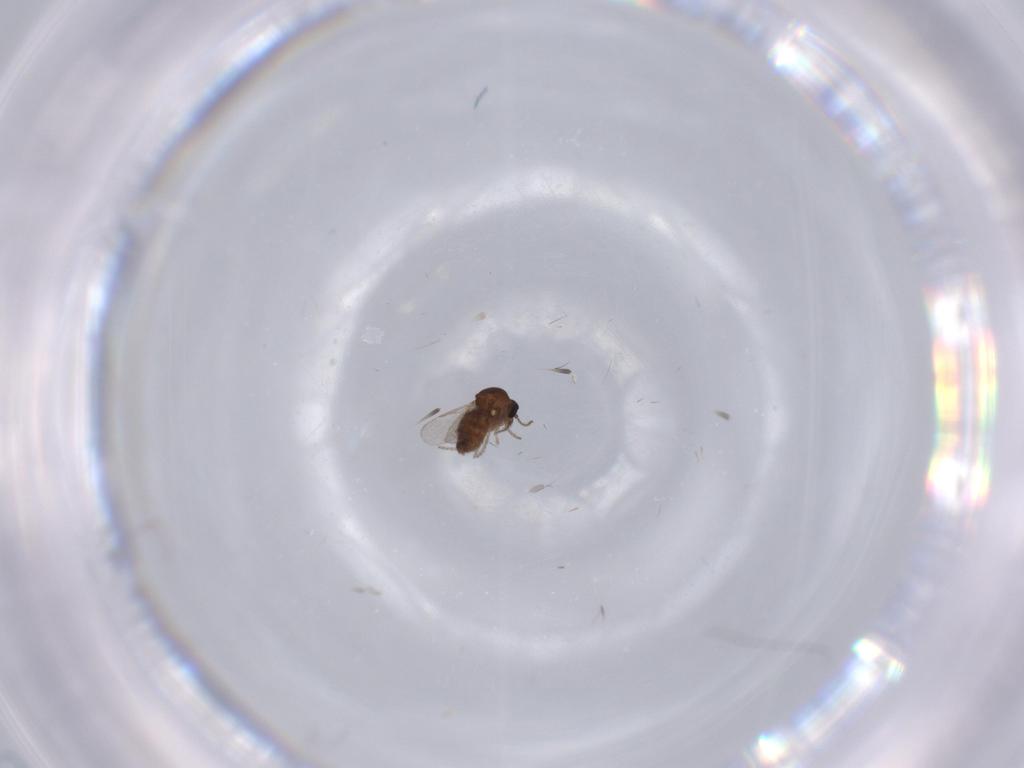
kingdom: Animalia
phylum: Arthropoda
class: Insecta
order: Diptera
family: Ceratopogonidae
